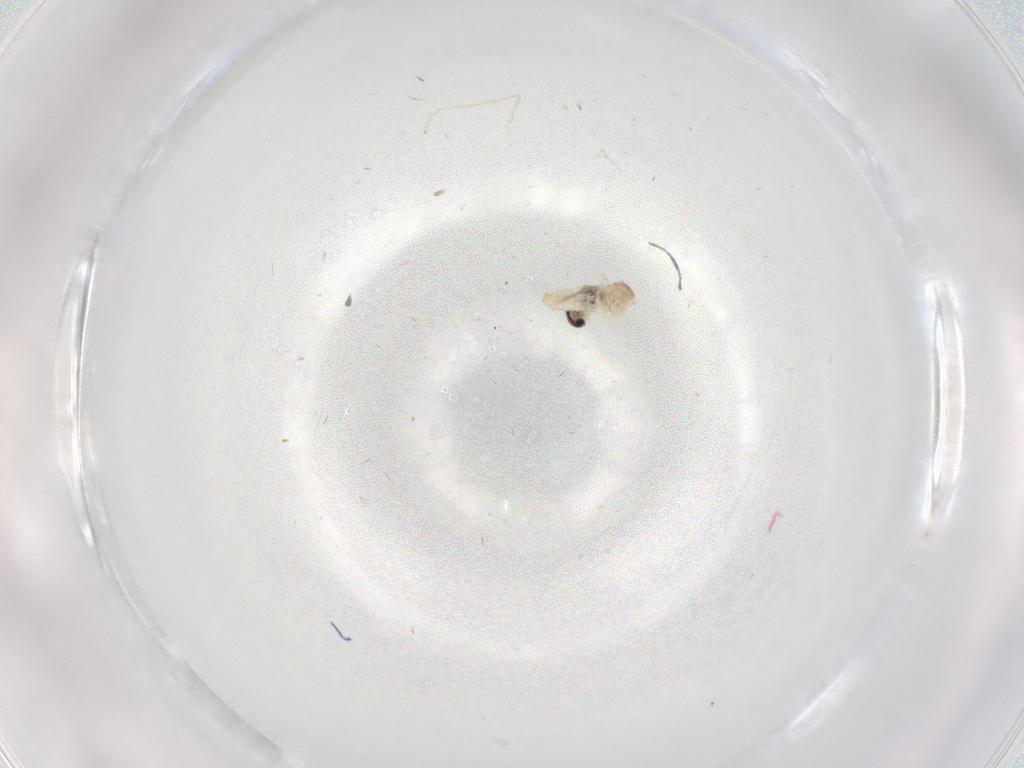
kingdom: Animalia
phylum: Arthropoda
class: Insecta
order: Diptera
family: Cecidomyiidae
